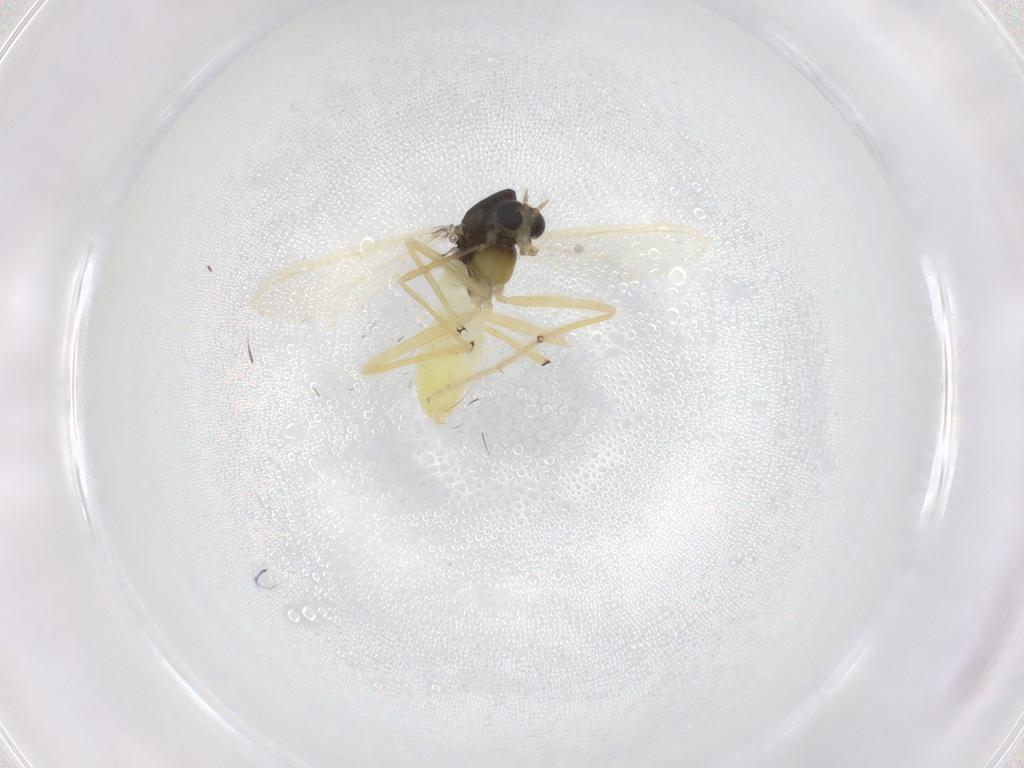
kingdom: Animalia
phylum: Arthropoda
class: Insecta
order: Diptera
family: Chironomidae
